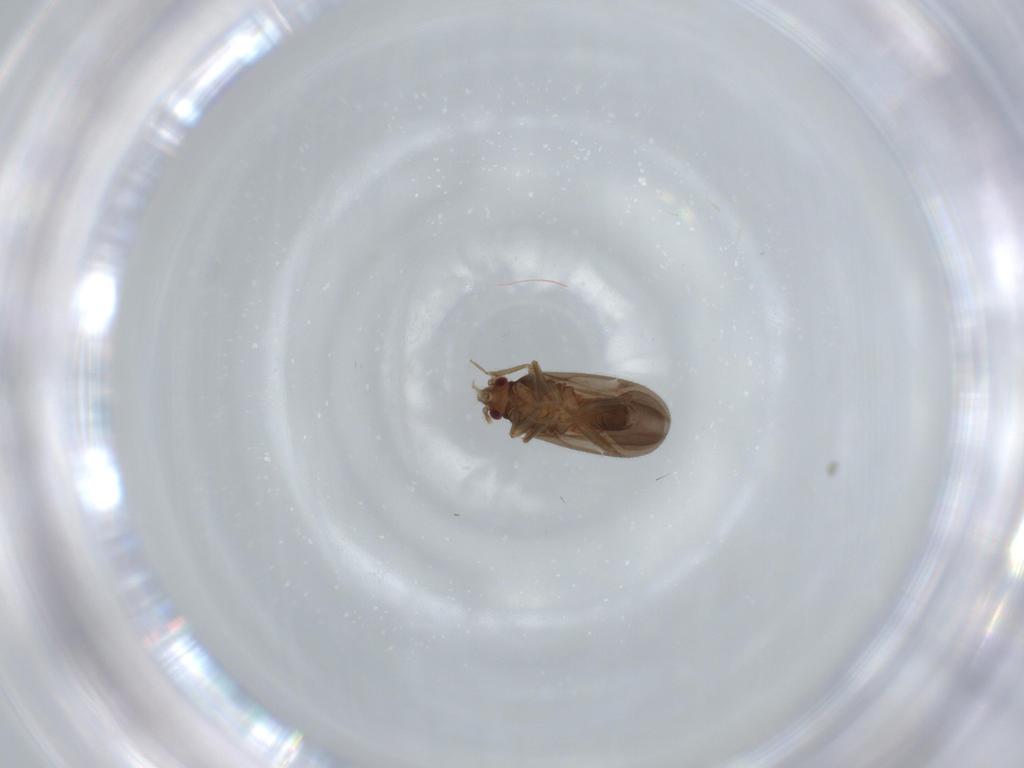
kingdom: Animalia
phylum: Arthropoda
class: Insecta
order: Hemiptera
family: Ceratocombidae
